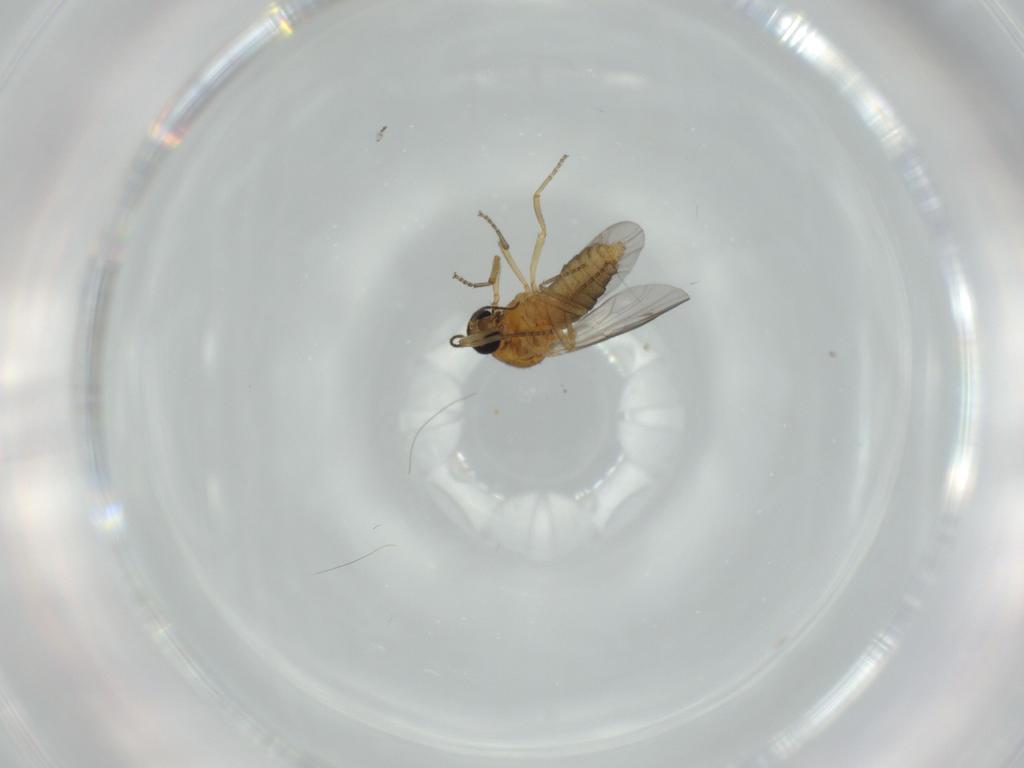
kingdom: Animalia
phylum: Arthropoda
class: Insecta
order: Diptera
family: Ceratopogonidae
